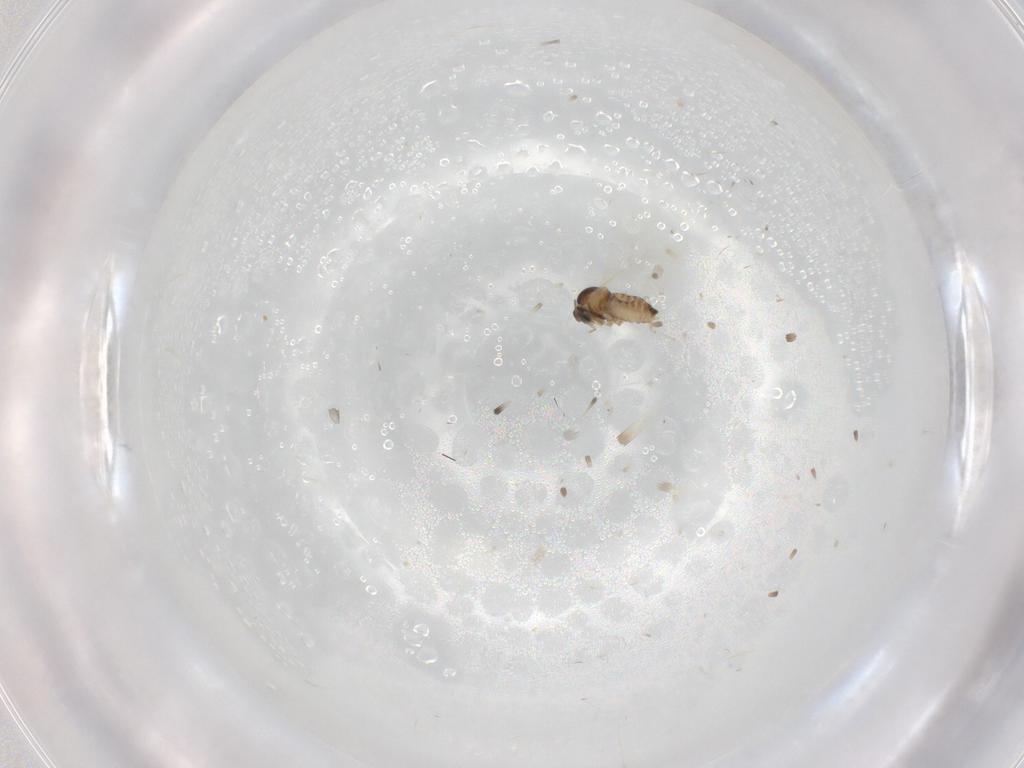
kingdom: Animalia
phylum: Arthropoda
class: Insecta
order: Diptera
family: Cecidomyiidae
